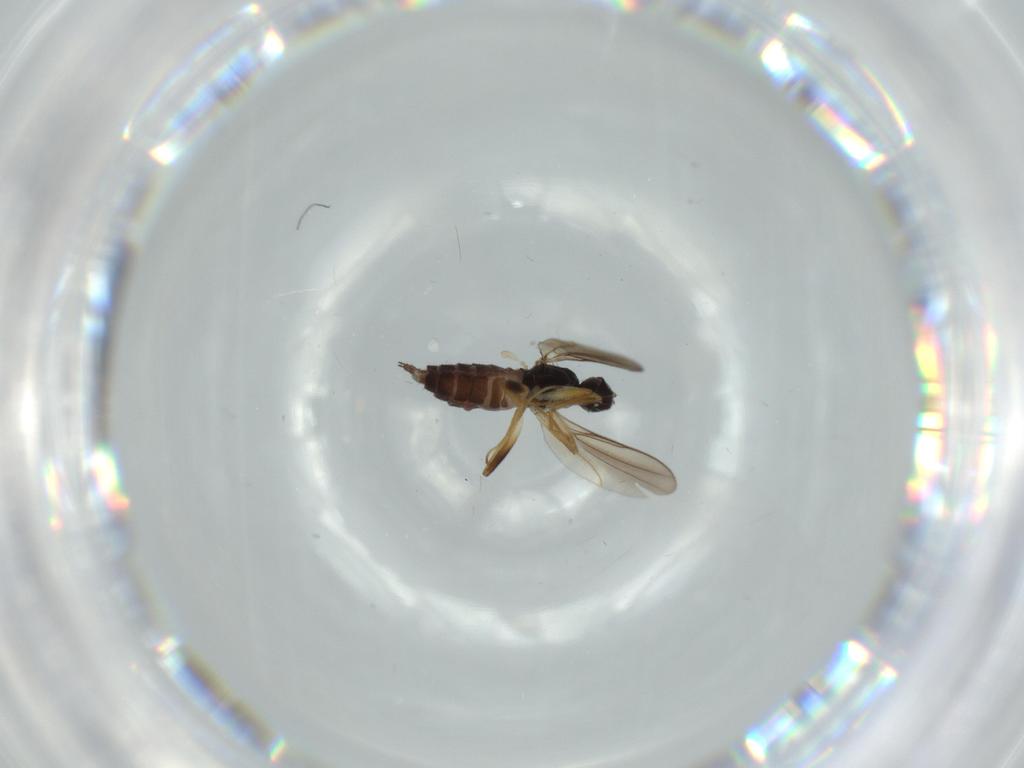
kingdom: Animalia
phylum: Arthropoda
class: Insecta
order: Diptera
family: Hybotidae
